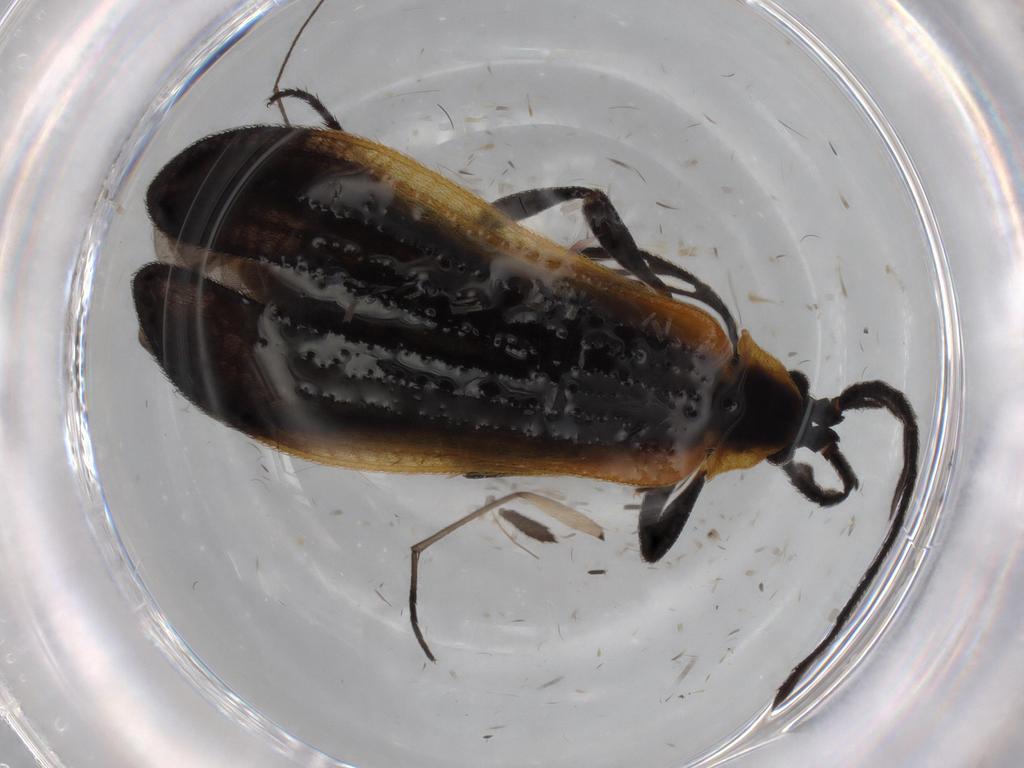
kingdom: Animalia
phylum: Arthropoda
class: Insecta
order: Coleoptera
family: Lycidae
